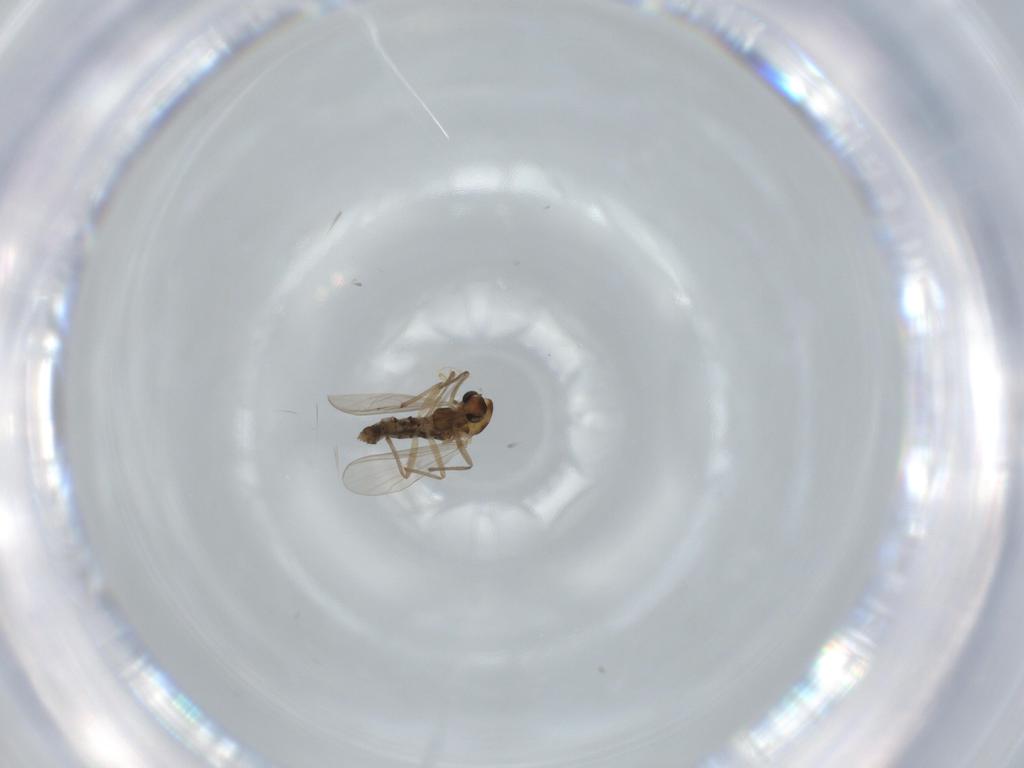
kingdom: Animalia
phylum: Arthropoda
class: Insecta
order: Diptera
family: Chironomidae
